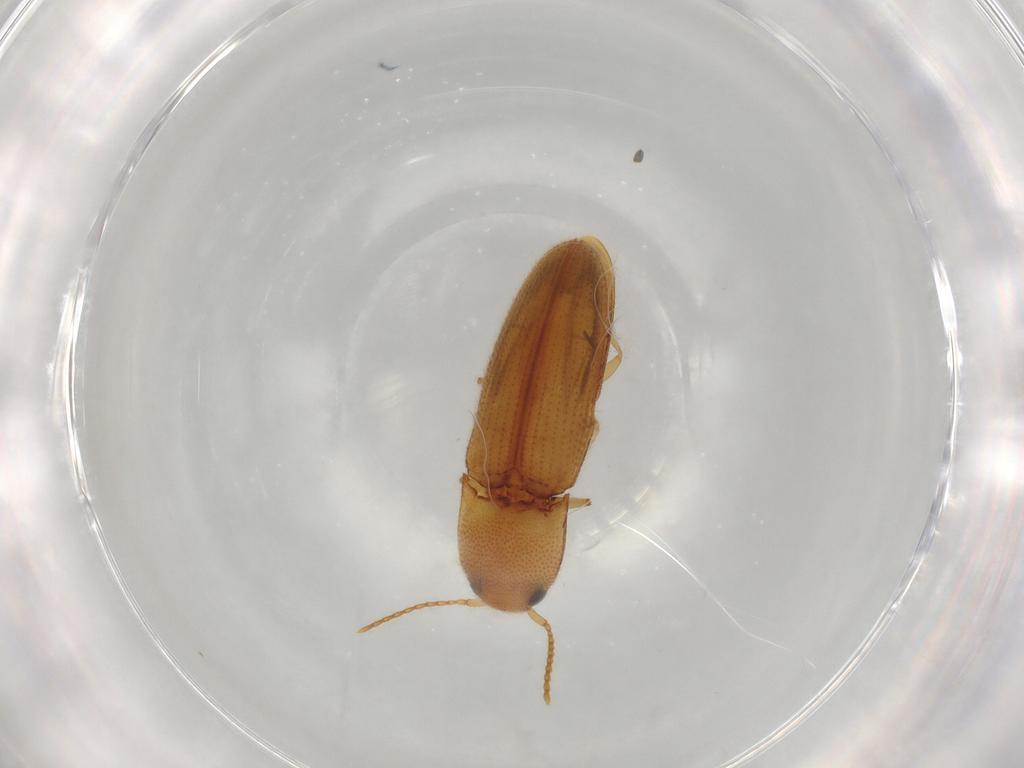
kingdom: Animalia
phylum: Arthropoda
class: Insecta
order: Coleoptera
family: Elateridae
